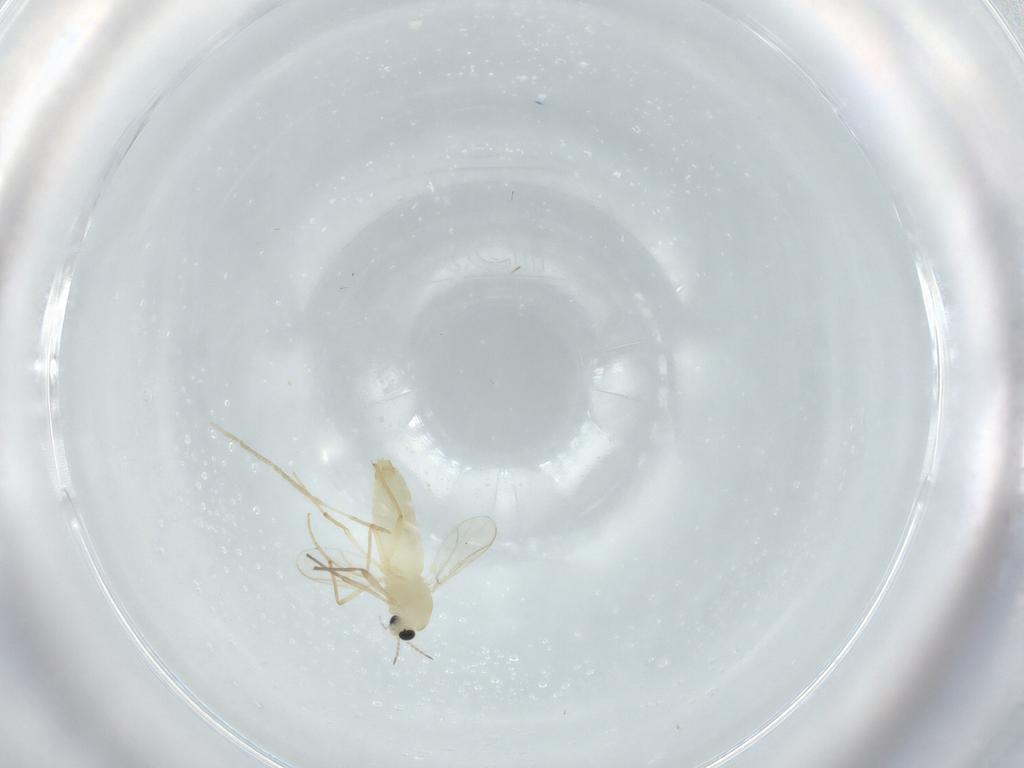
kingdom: Animalia
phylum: Arthropoda
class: Insecta
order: Diptera
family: Chironomidae
